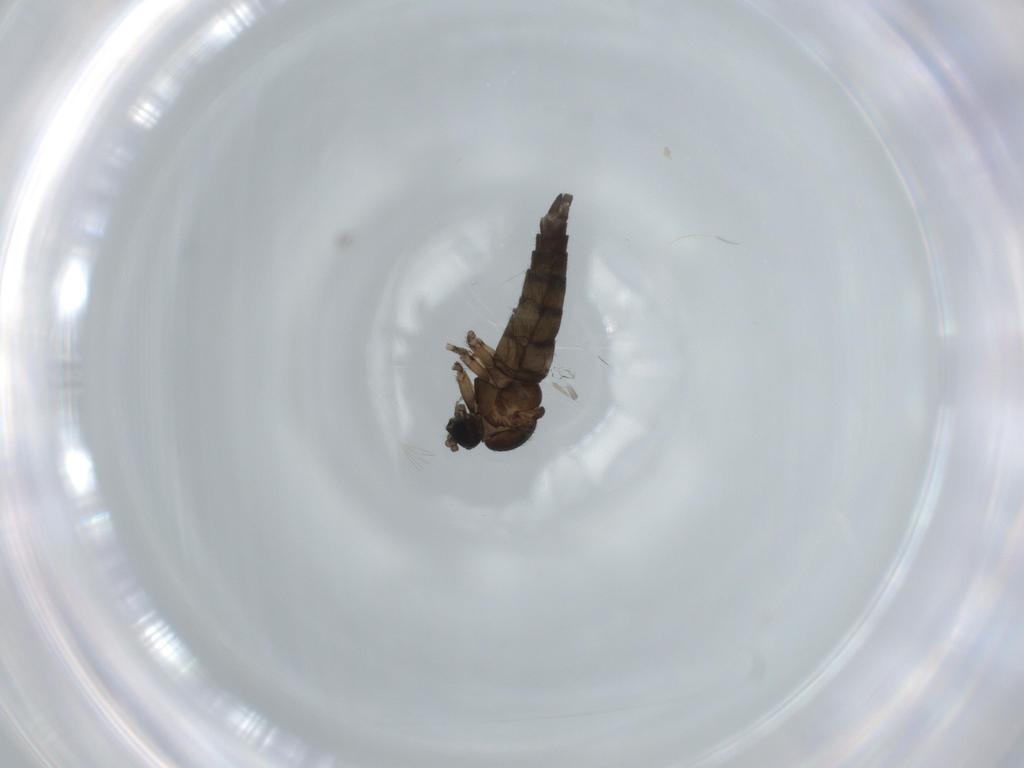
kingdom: Animalia
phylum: Arthropoda
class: Insecta
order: Diptera
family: Sciaridae
